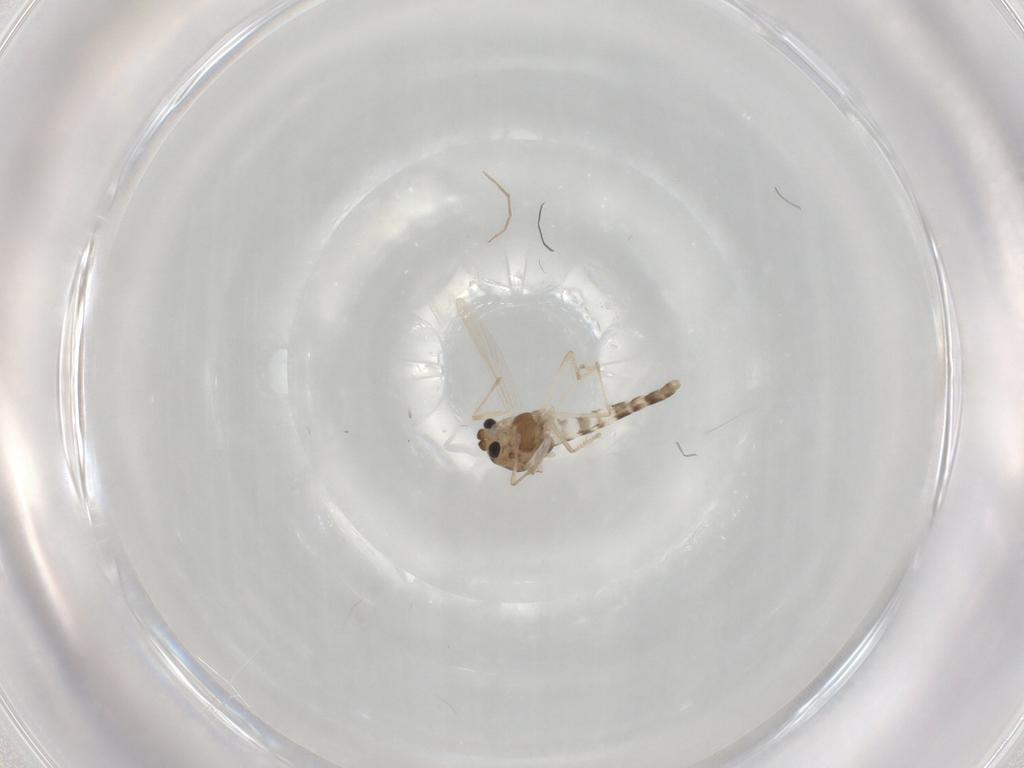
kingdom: Animalia
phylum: Arthropoda
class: Insecta
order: Diptera
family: Chironomidae
